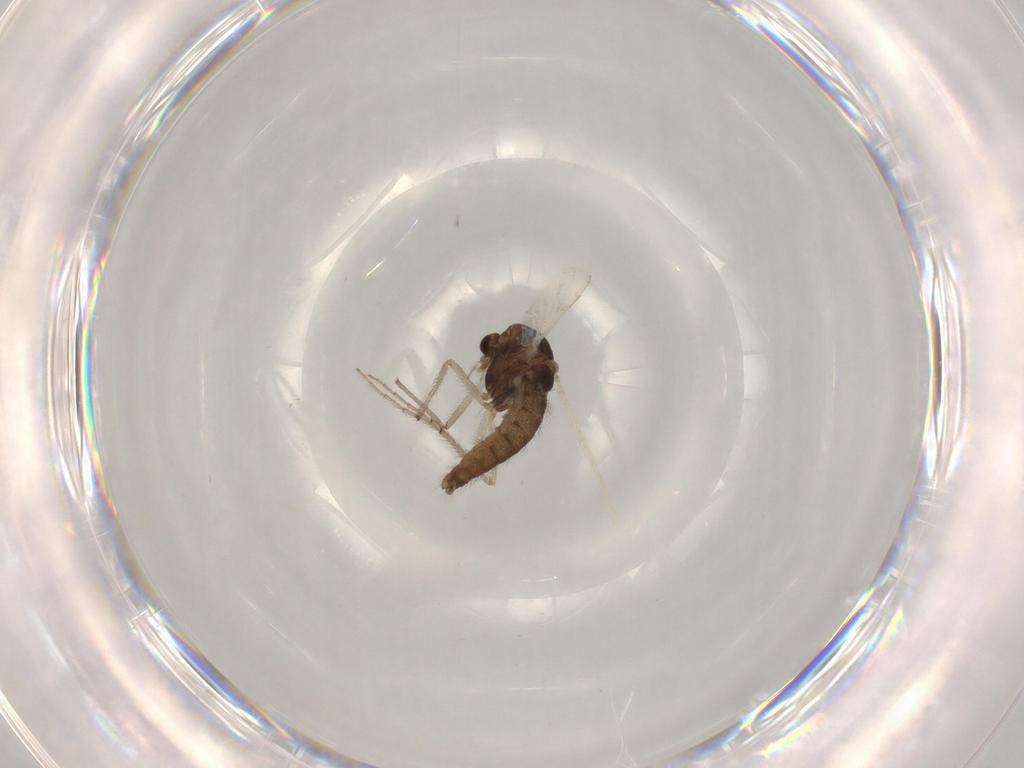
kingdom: Animalia
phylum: Arthropoda
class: Insecta
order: Diptera
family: Chironomidae
